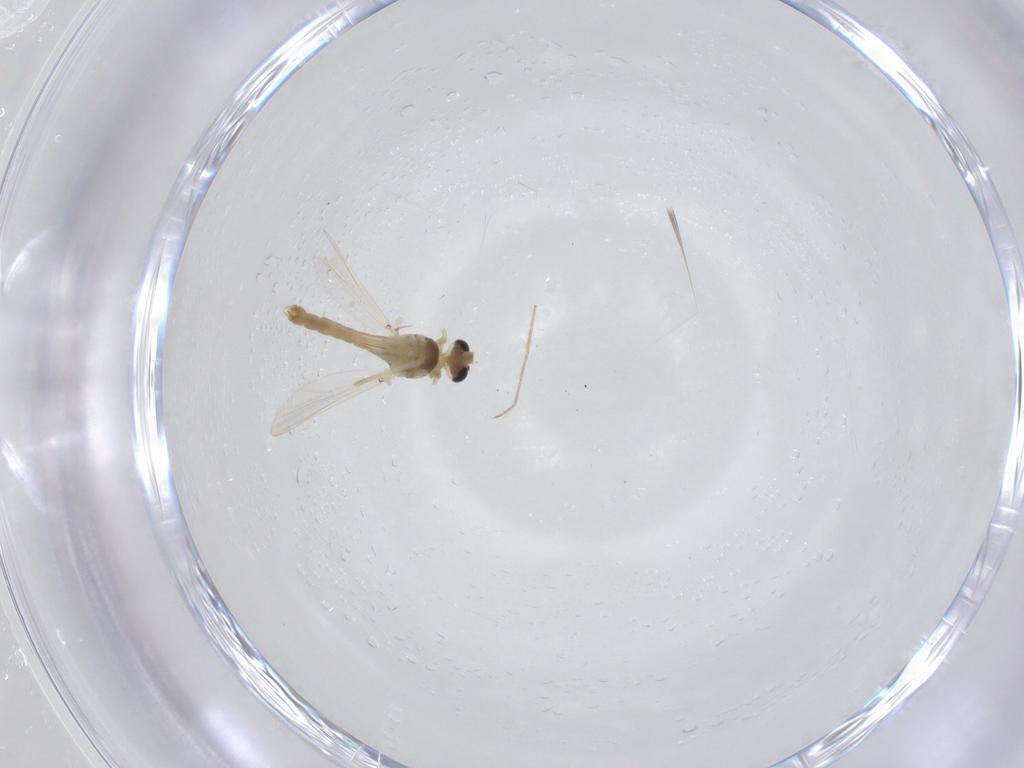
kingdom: Animalia
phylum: Arthropoda
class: Insecta
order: Diptera
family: Chironomidae
